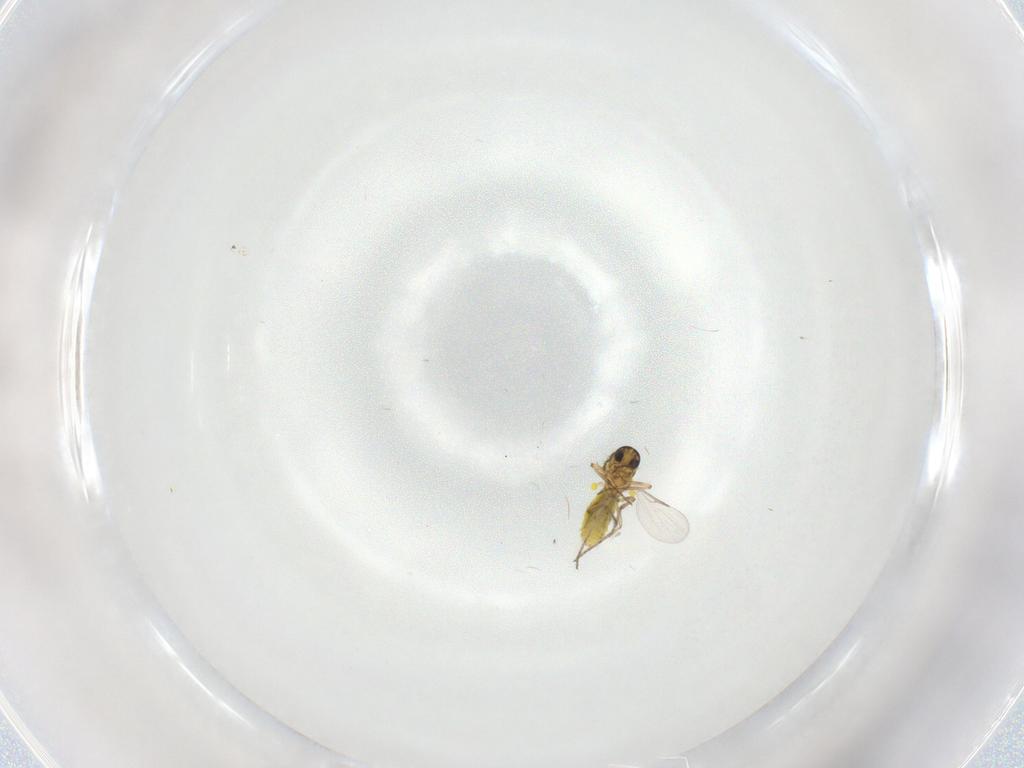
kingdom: Animalia
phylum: Arthropoda
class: Insecta
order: Diptera
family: Ceratopogonidae
